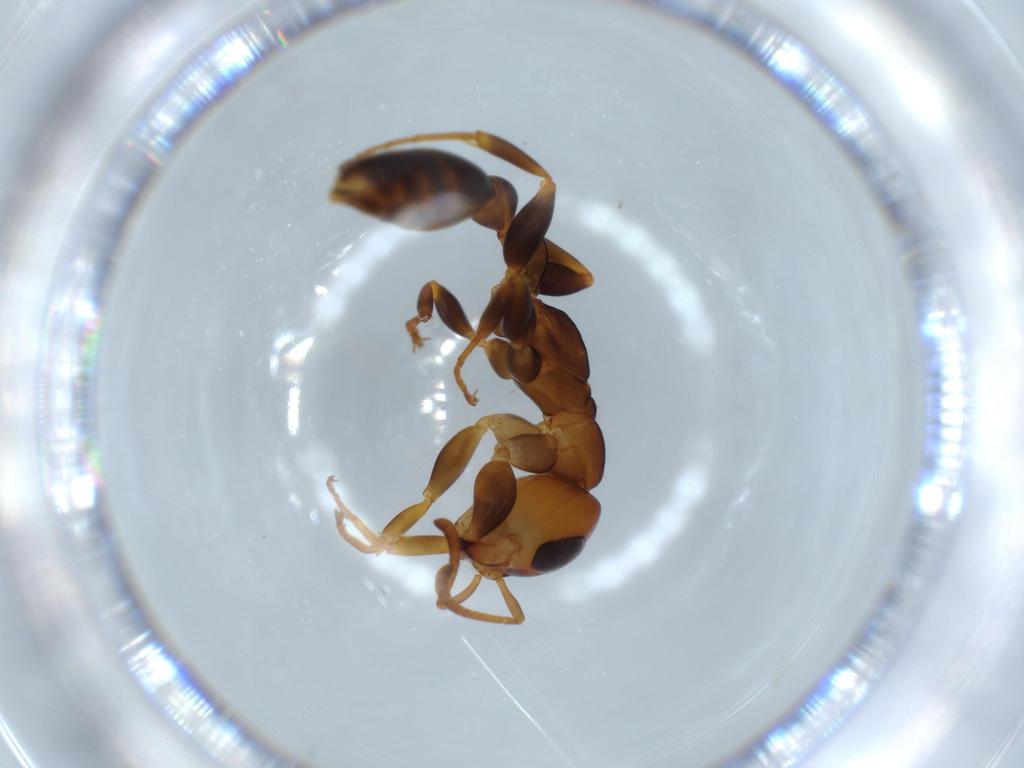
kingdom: Animalia
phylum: Arthropoda
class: Insecta
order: Hymenoptera
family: Formicidae
